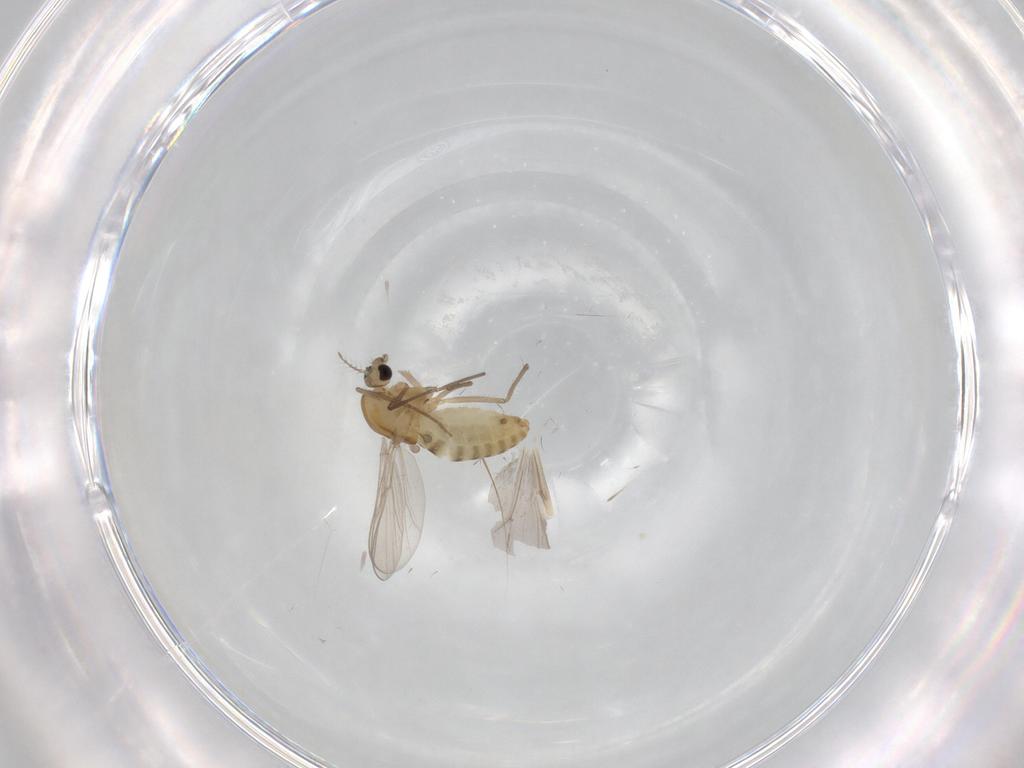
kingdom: Animalia
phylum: Arthropoda
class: Insecta
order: Diptera
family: Chironomidae
